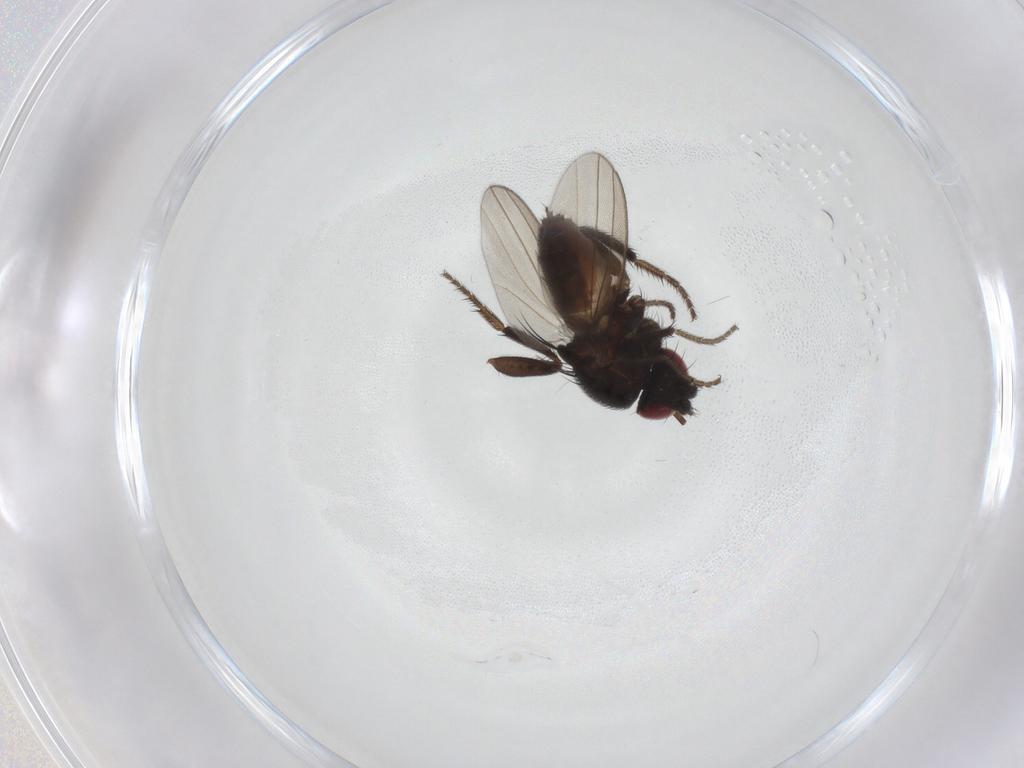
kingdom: Animalia
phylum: Arthropoda
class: Insecta
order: Diptera
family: Milichiidae
